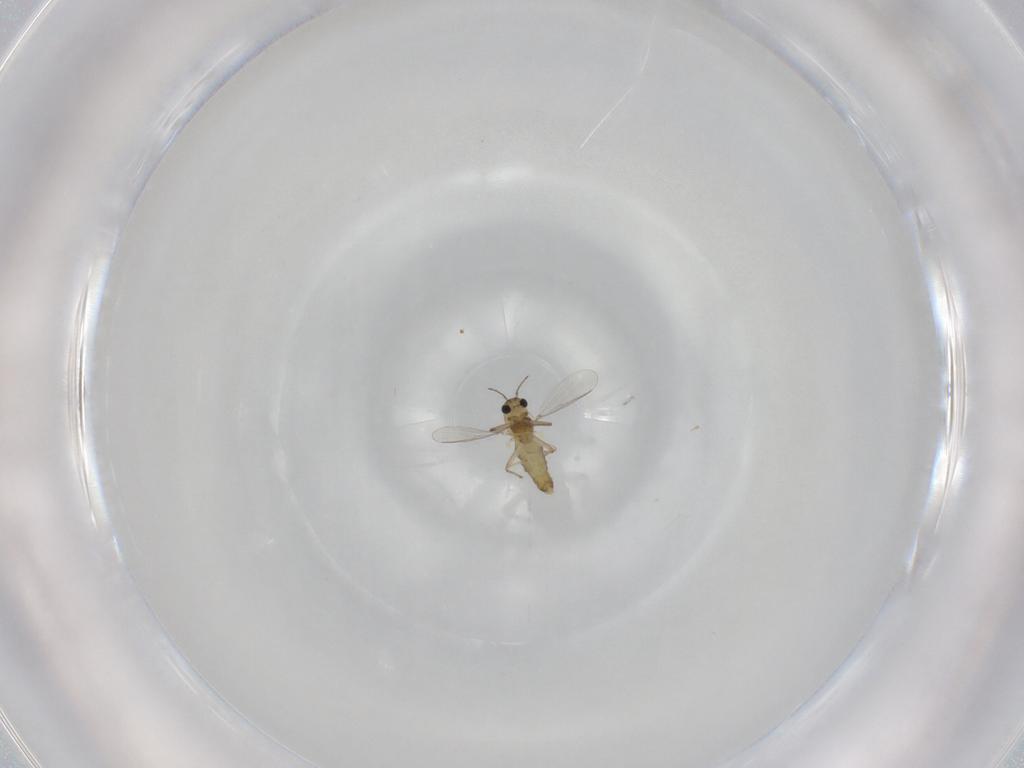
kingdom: Animalia
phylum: Arthropoda
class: Insecta
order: Diptera
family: Chironomidae
